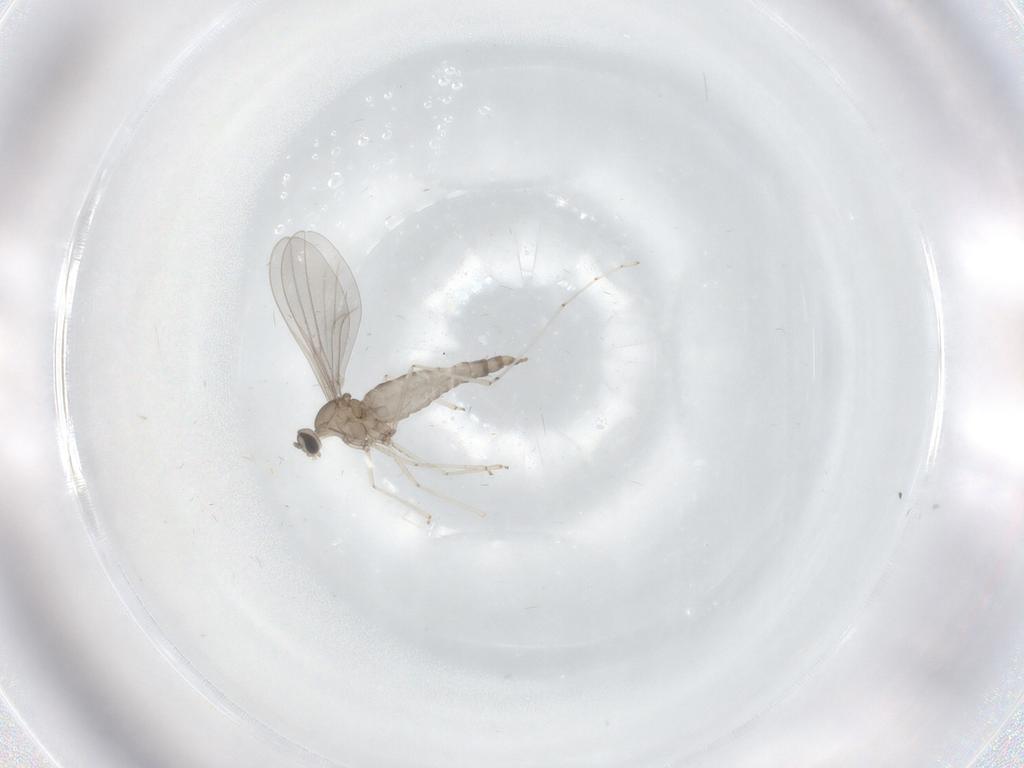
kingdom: Animalia
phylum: Arthropoda
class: Insecta
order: Diptera
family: Cecidomyiidae
